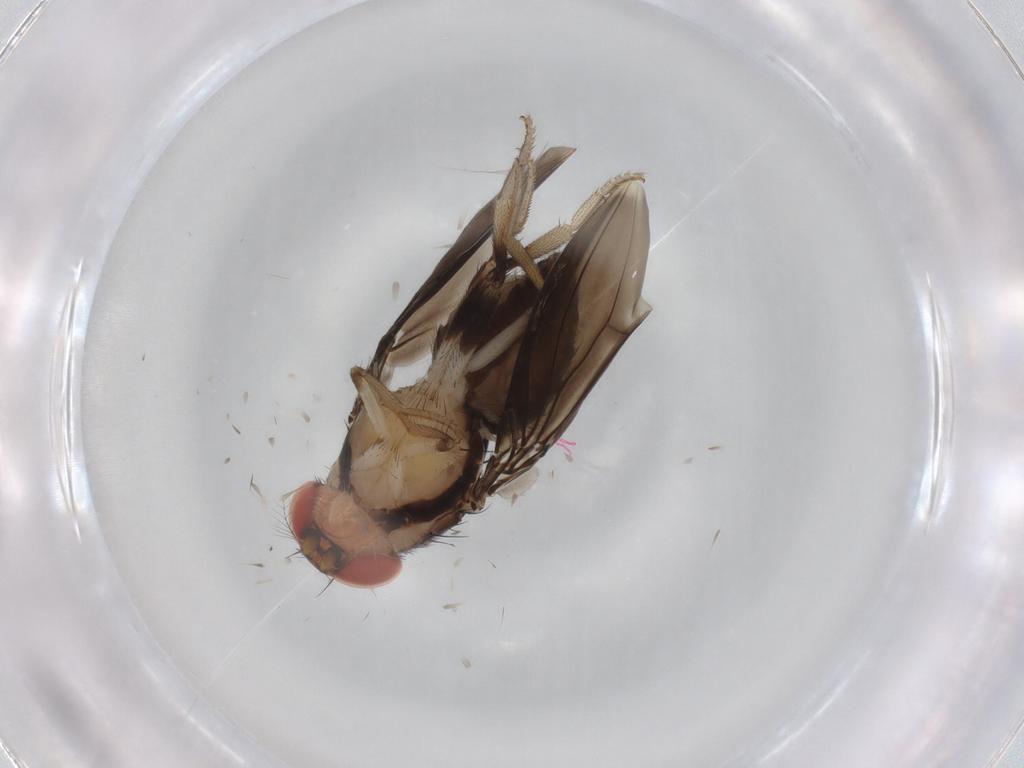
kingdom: Animalia
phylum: Arthropoda
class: Insecta
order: Diptera
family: Drosophilidae
